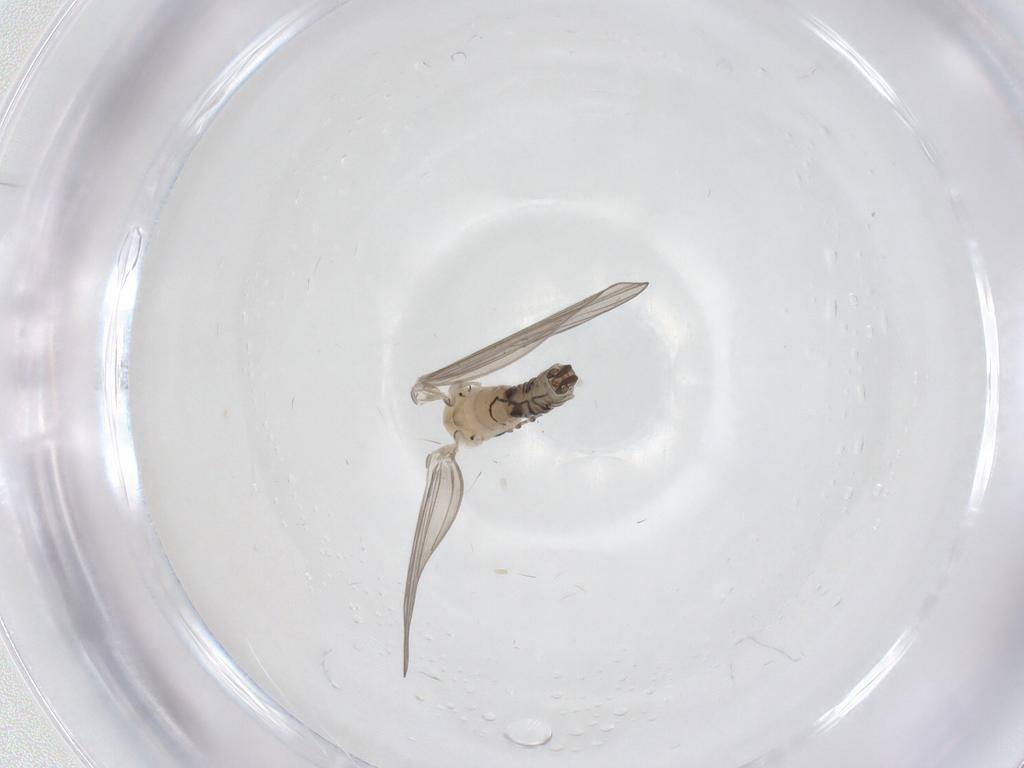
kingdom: Animalia
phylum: Arthropoda
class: Insecta
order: Diptera
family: Psychodidae
